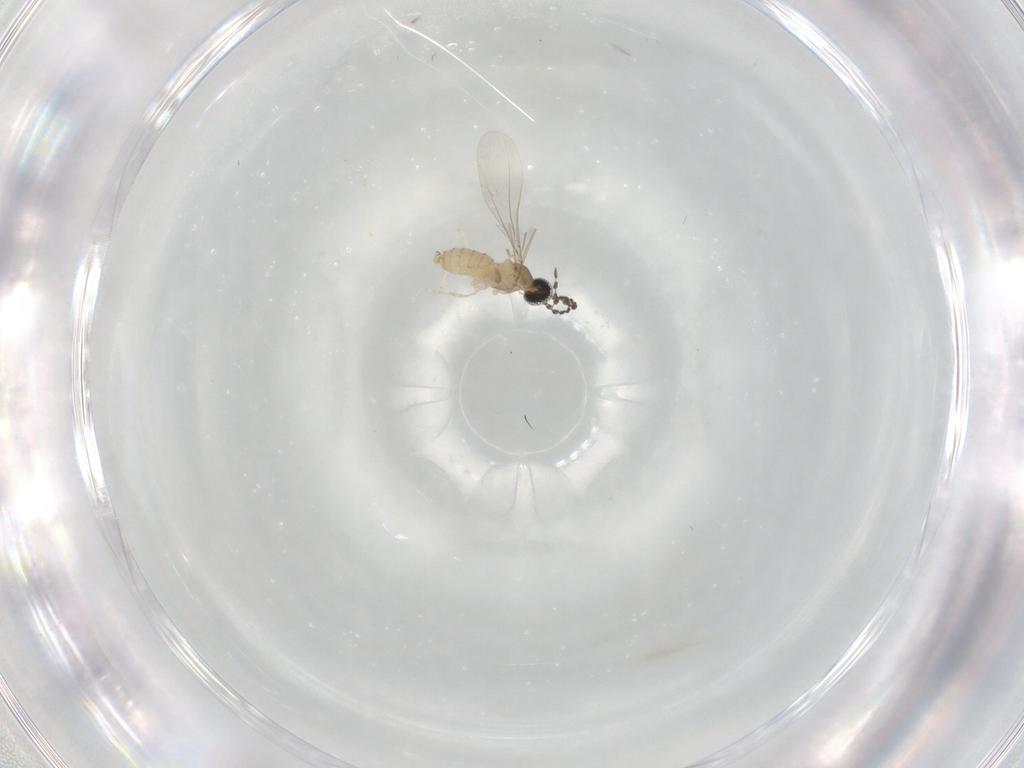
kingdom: Animalia
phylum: Arthropoda
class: Insecta
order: Diptera
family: Cecidomyiidae
